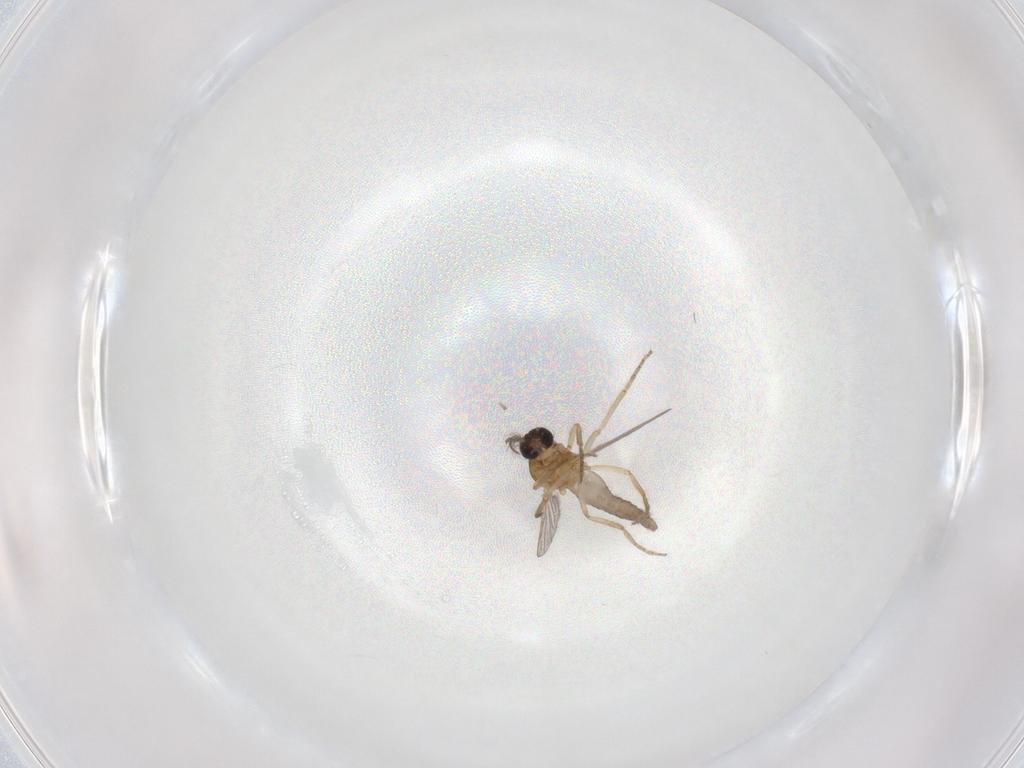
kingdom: Animalia
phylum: Arthropoda
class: Insecta
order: Diptera
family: Ceratopogonidae
